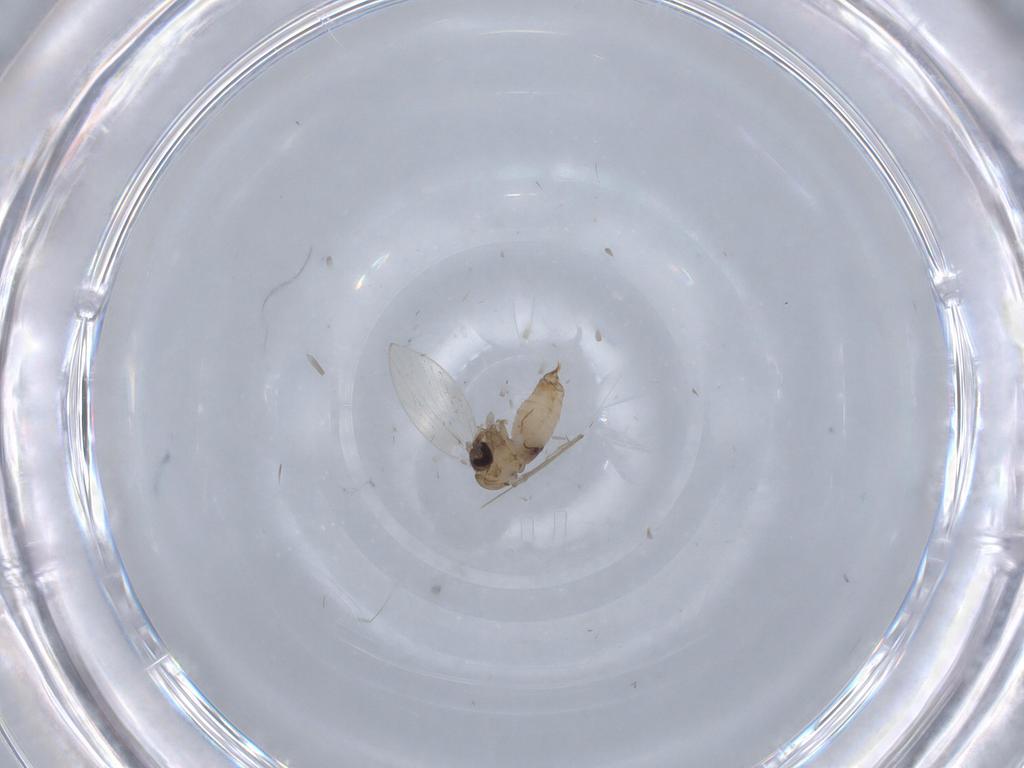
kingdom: Animalia
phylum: Arthropoda
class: Insecta
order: Diptera
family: Psychodidae
